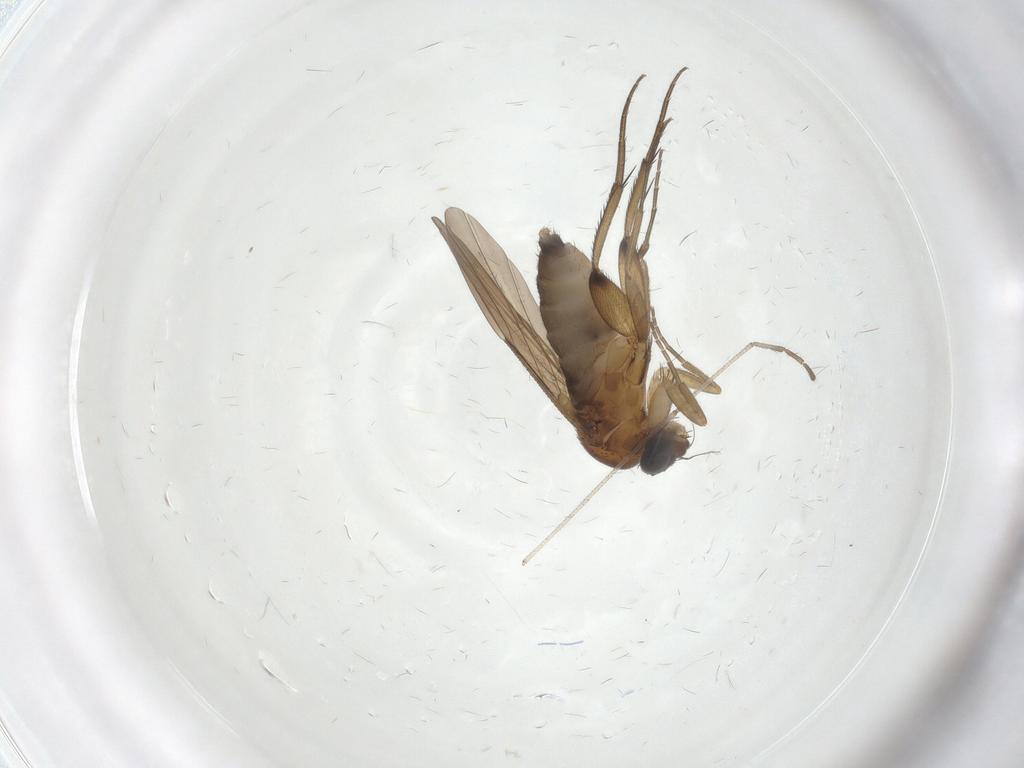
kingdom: Animalia
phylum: Arthropoda
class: Insecta
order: Diptera
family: Phoridae
